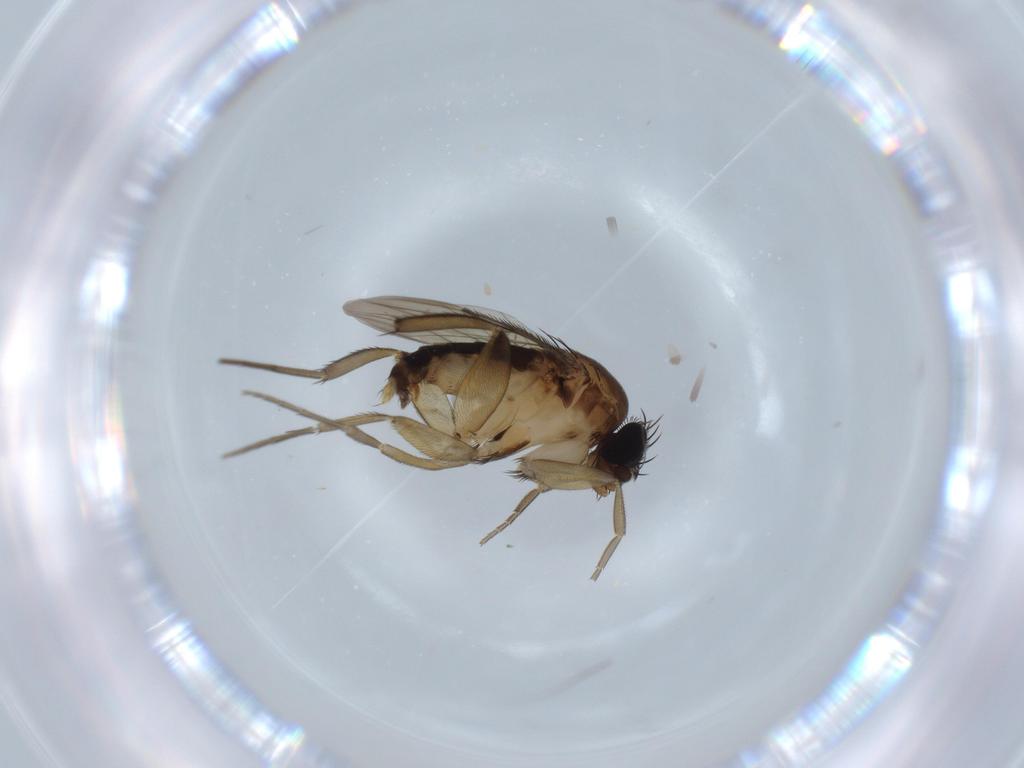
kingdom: Animalia
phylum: Arthropoda
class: Insecta
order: Diptera
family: Phoridae
